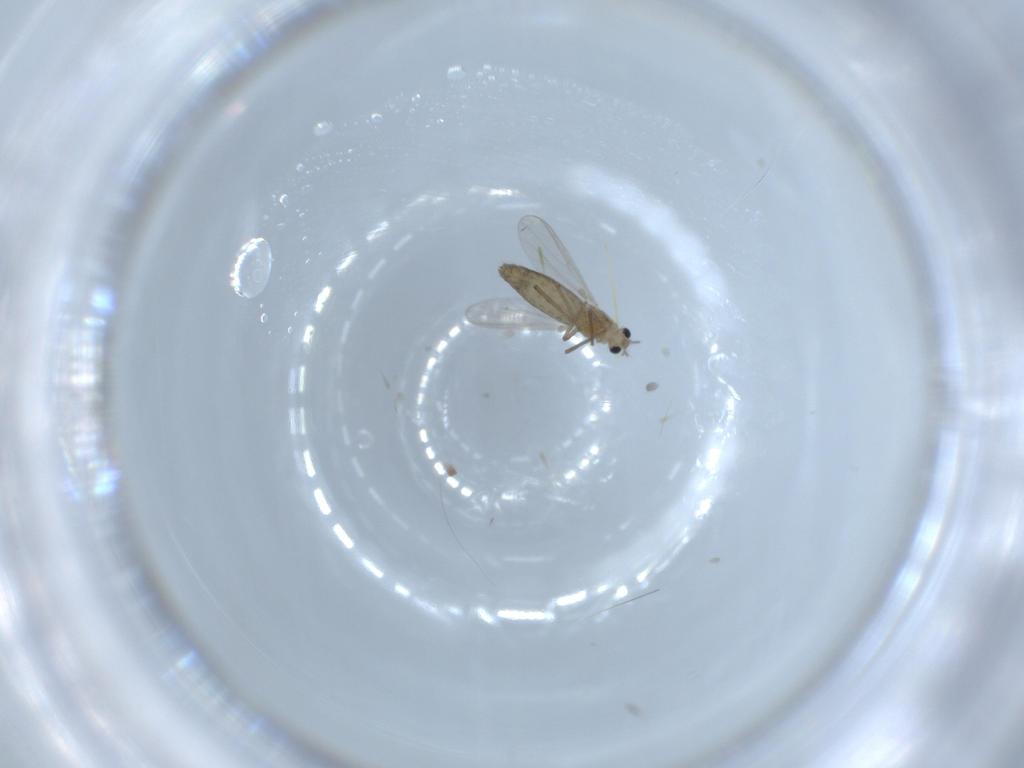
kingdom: Animalia
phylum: Arthropoda
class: Insecta
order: Diptera
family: Chironomidae
